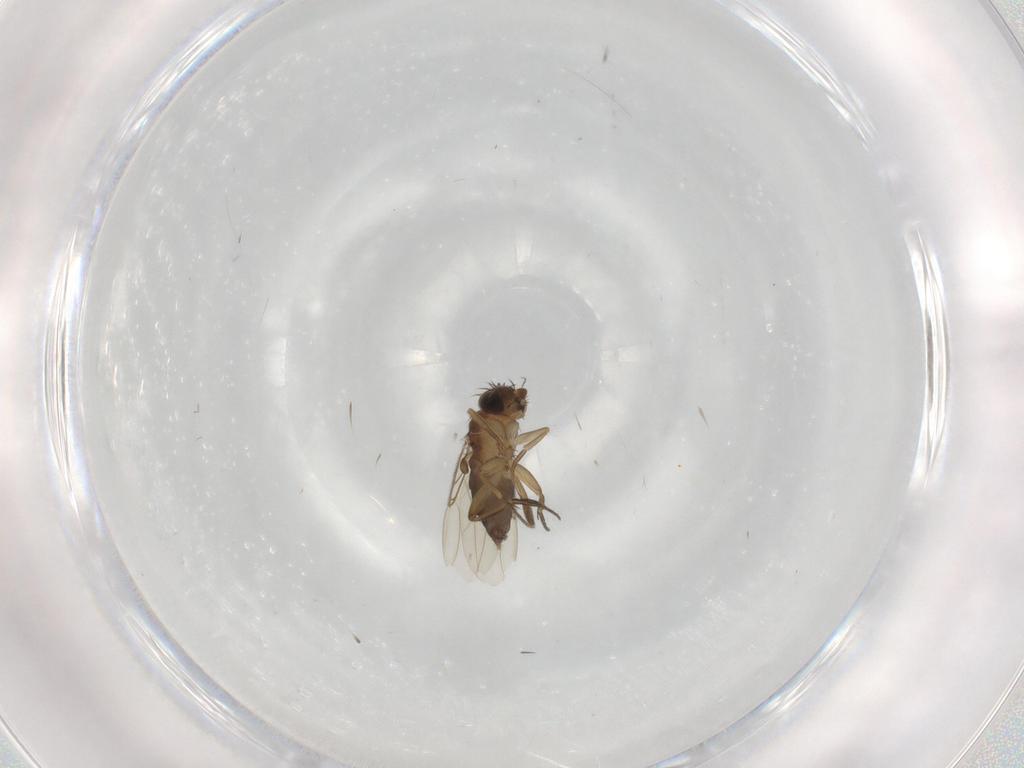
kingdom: Animalia
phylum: Arthropoda
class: Insecta
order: Diptera
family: Phoridae
